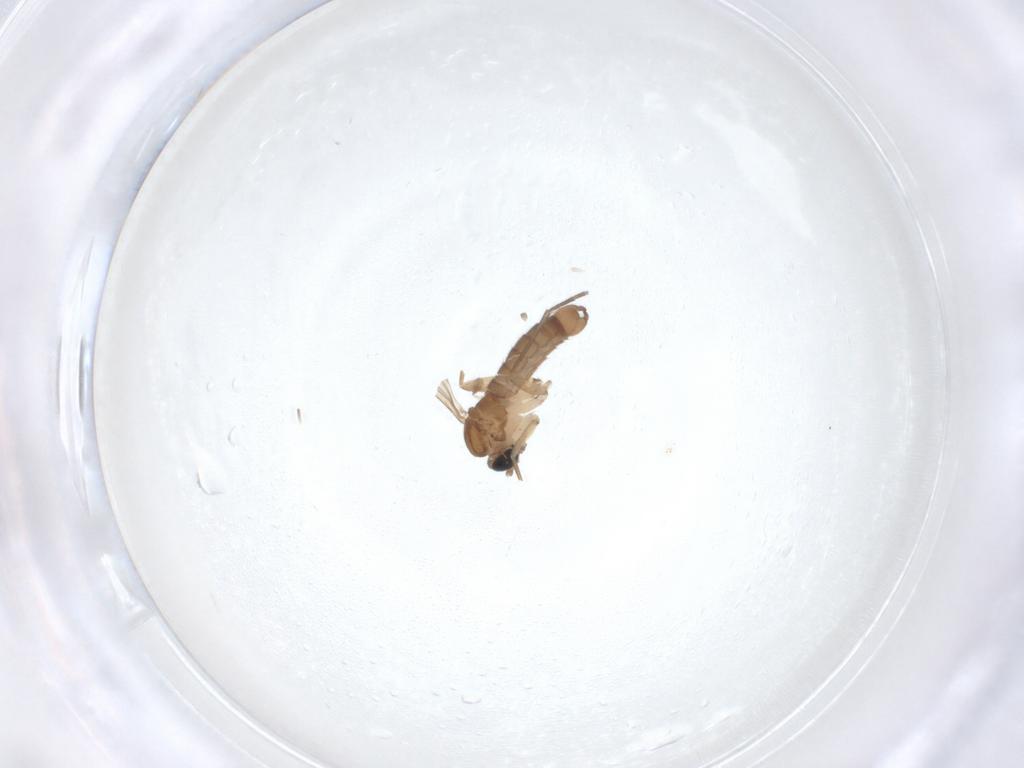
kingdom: Animalia
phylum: Arthropoda
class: Insecta
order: Diptera
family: Sciaridae
